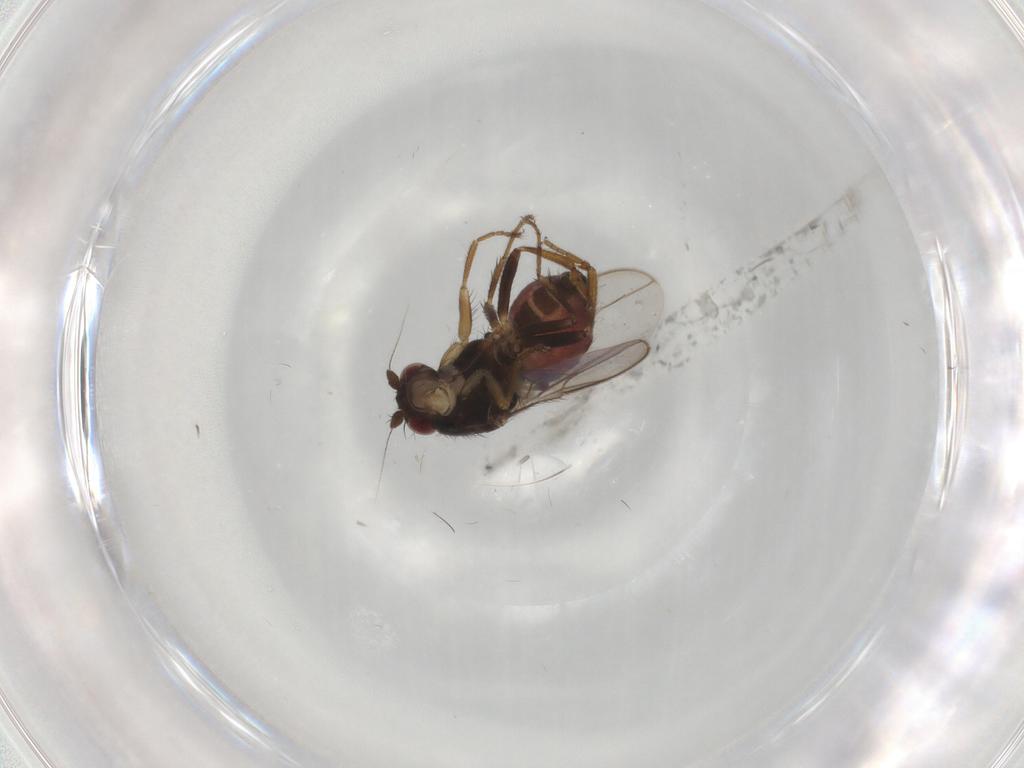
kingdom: Animalia
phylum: Arthropoda
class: Insecta
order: Diptera
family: Sphaeroceridae
